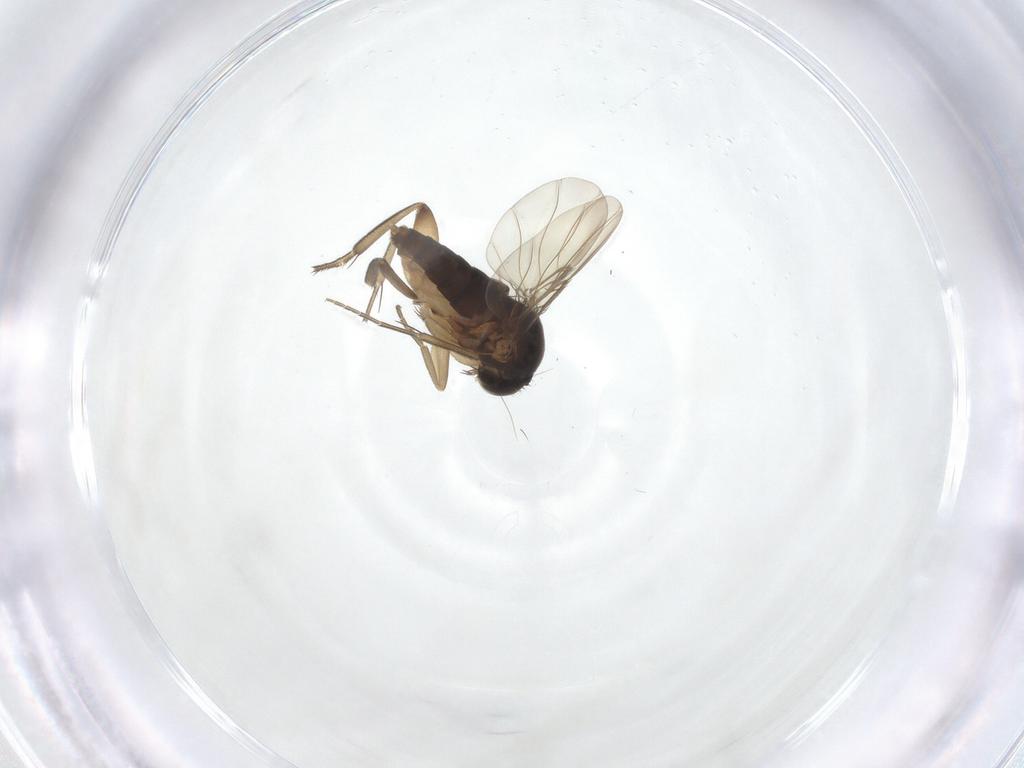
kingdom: Animalia
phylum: Arthropoda
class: Insecta
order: Diptera
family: Phoridae
